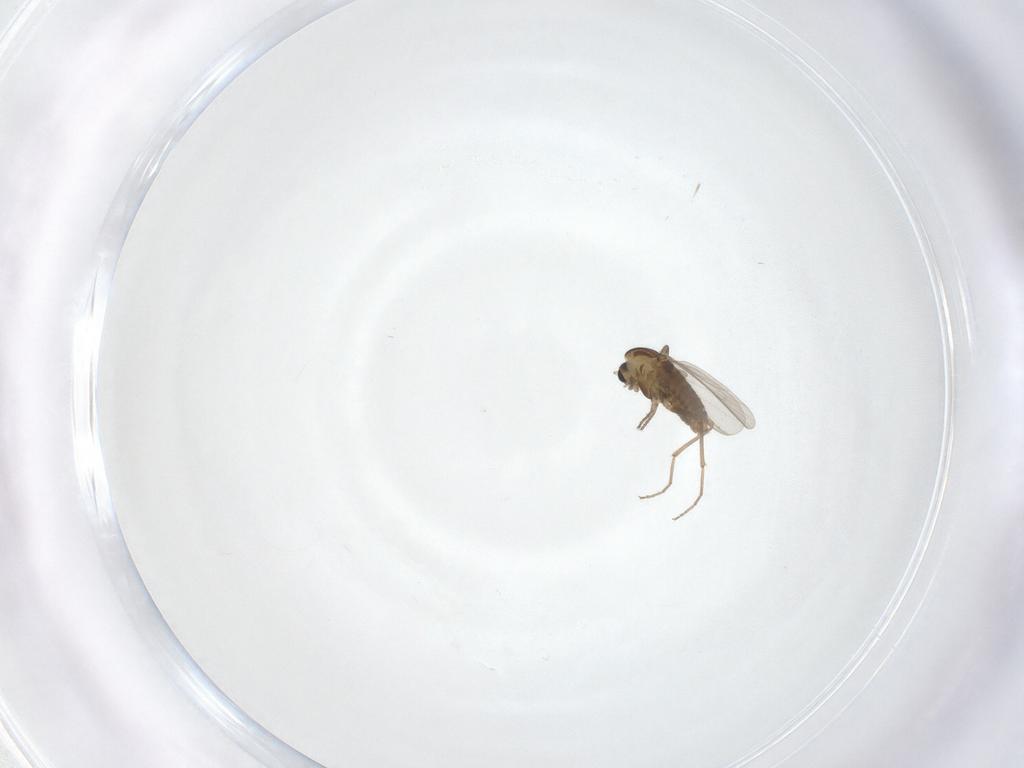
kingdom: Animalia
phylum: Arthropoda
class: Insecta
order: Diptera
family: Chironomidae
